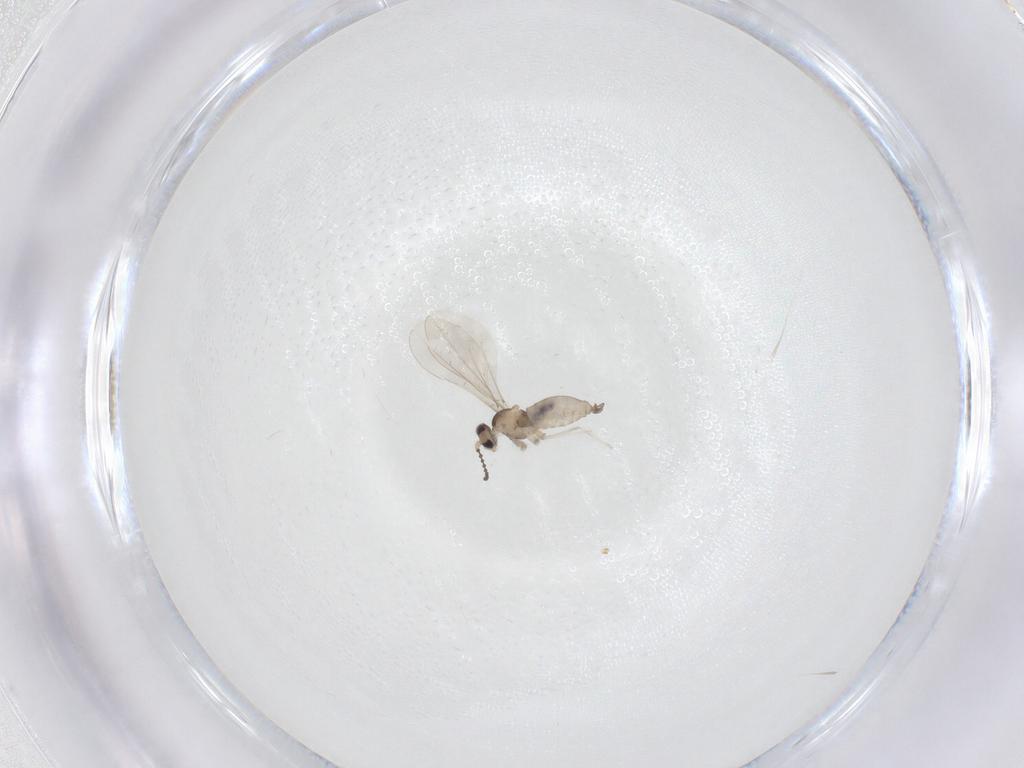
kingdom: Animalia
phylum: Arthropoda
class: Insecta
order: Diptera
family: Cecidomyiidae
